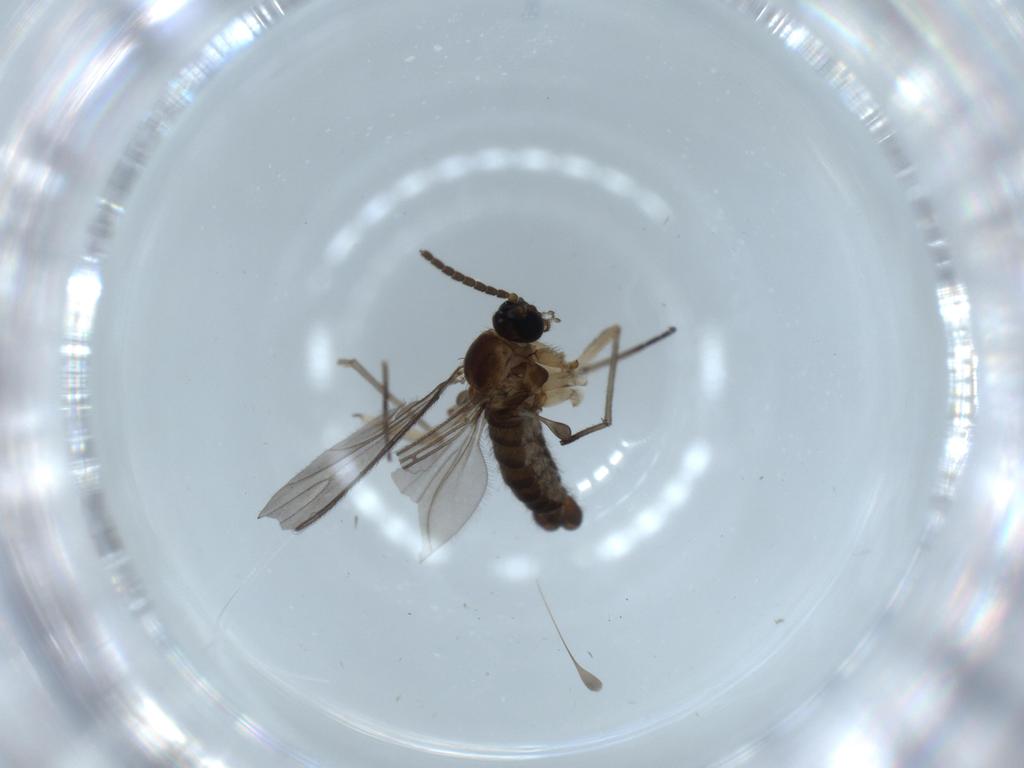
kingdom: Animalia
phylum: Arthropoda
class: Insecta
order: Diptera
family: Sciaridae
